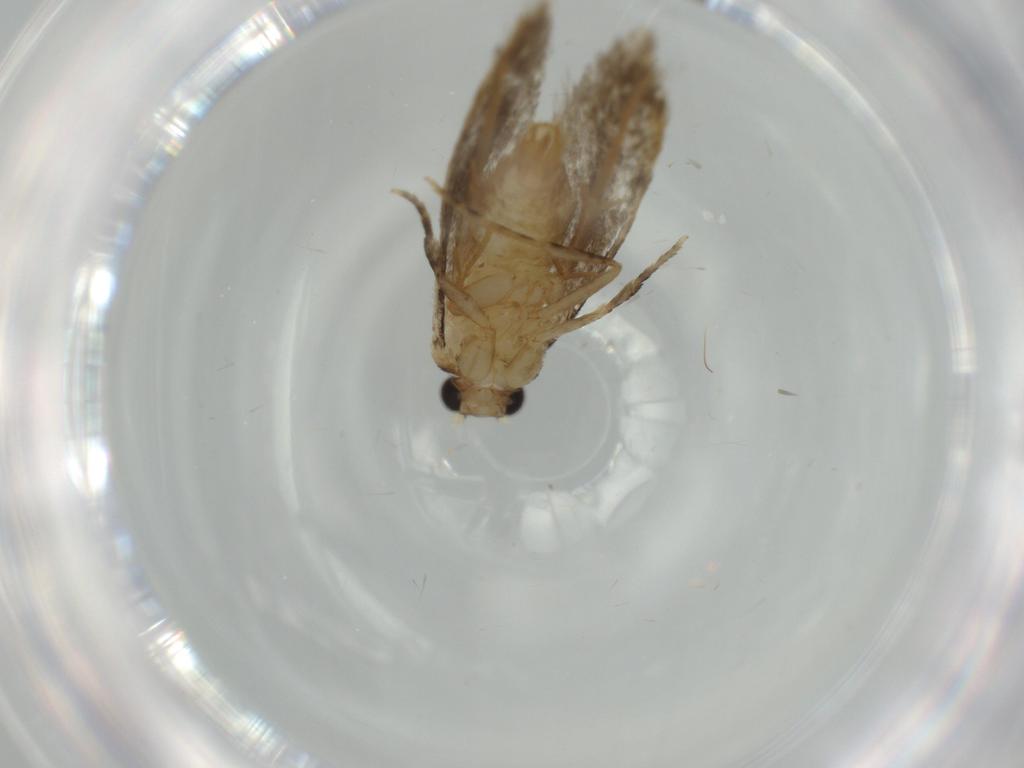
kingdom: Animalia
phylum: Arthropoda
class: Insecta
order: Lepidoptera
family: Tineidae
